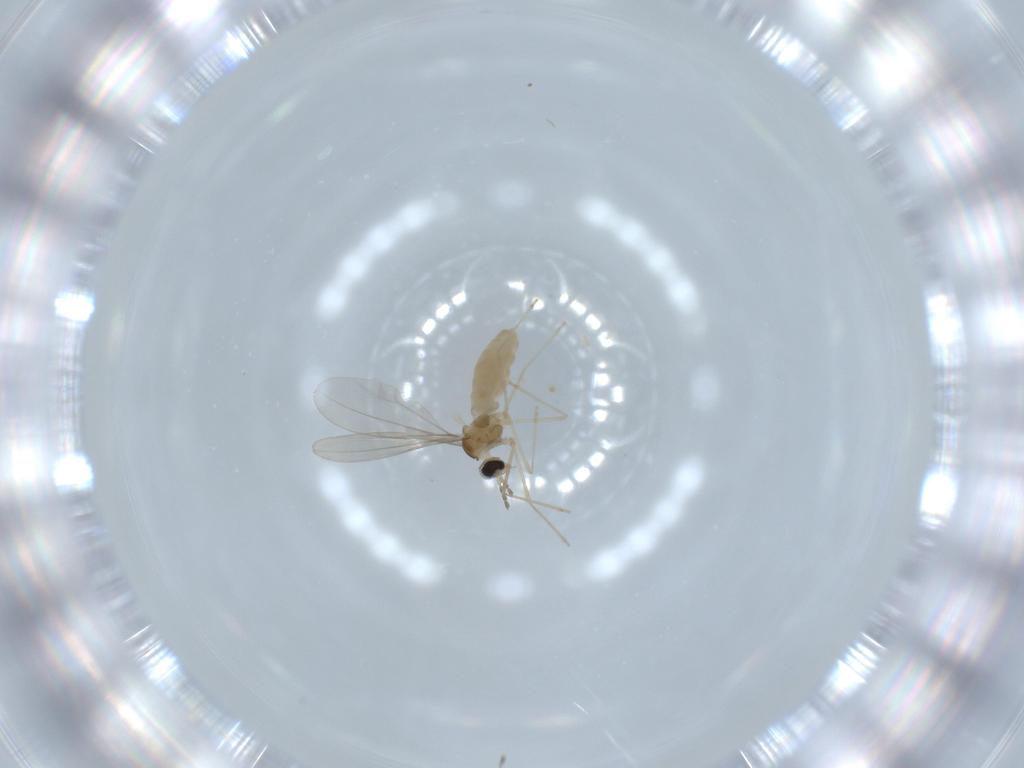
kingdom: Animalia
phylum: Arthropoda
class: Insecta
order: Diptera
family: Cecidomyiidae
